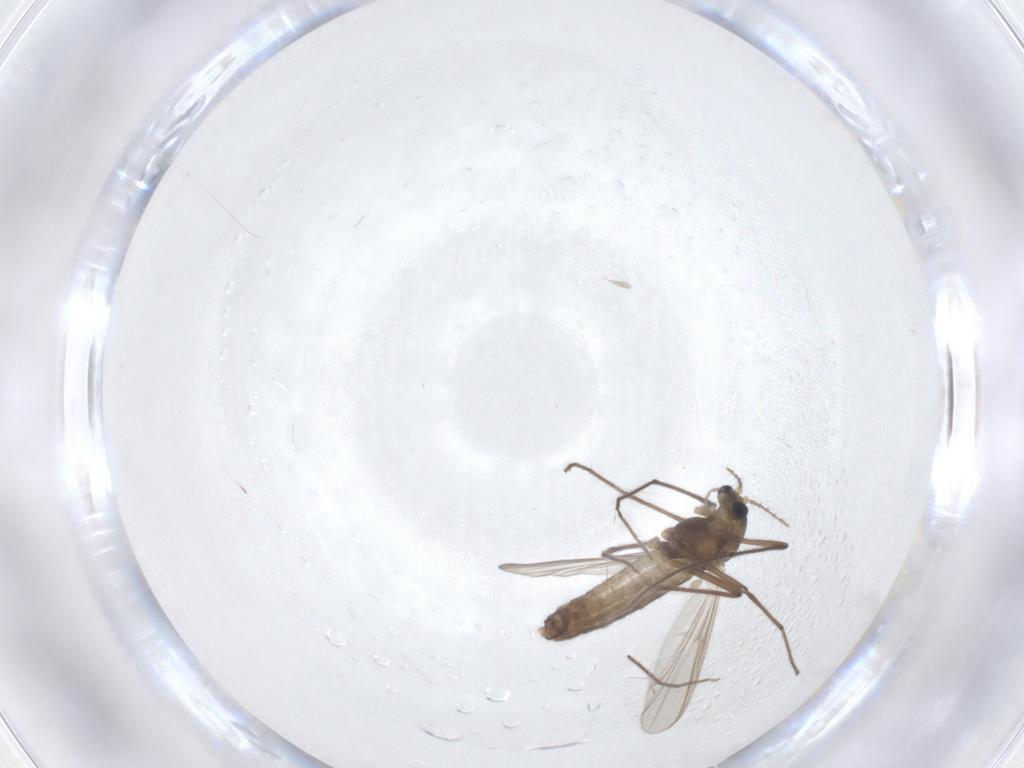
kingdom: Animalia
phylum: Arthropoda
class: Insecta
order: Diptera
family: Chironomidae
